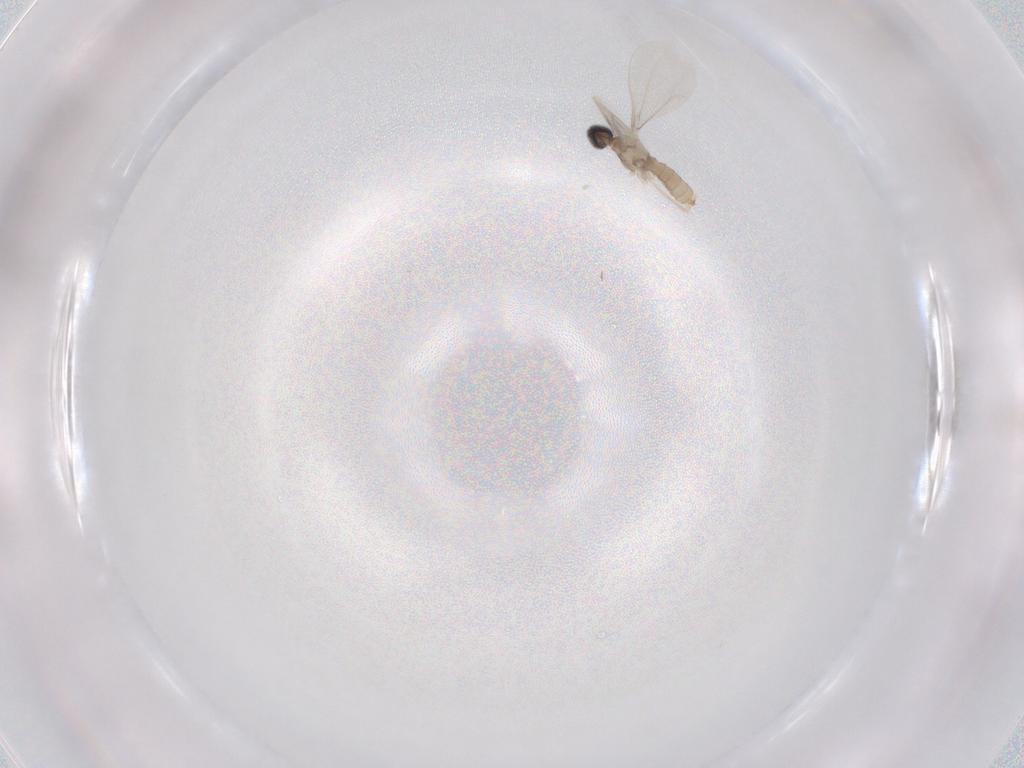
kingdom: Animalia
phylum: Arthropoda
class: Insecta
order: Diptera
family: Cecidomyiidae
